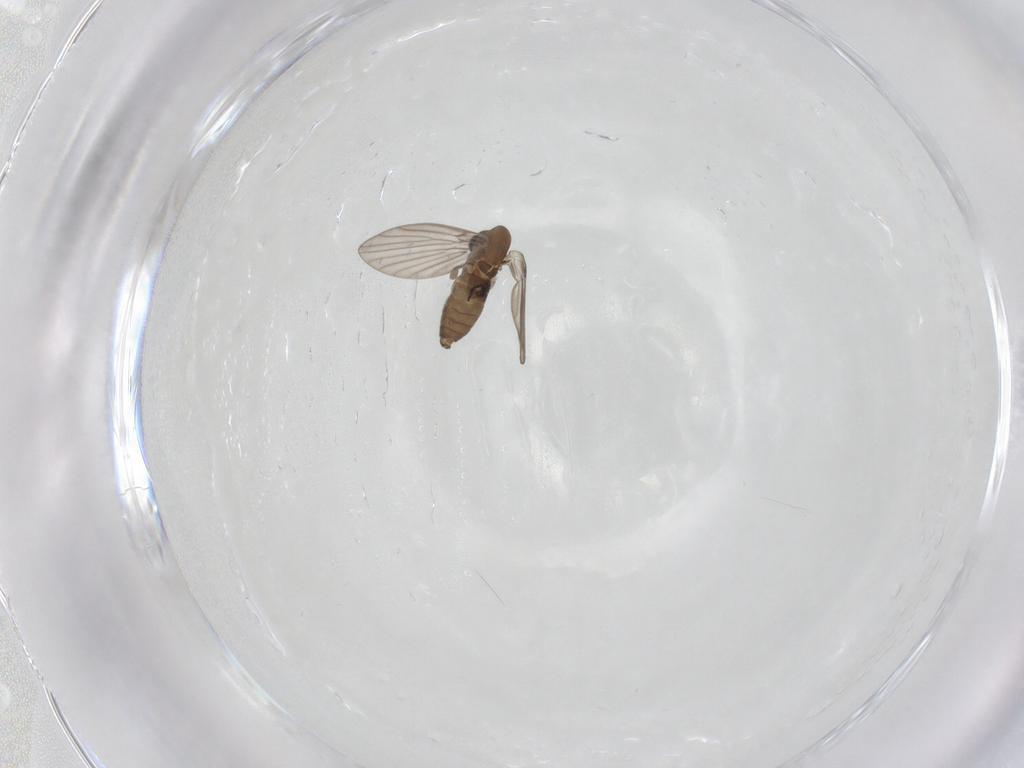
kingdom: Animalia
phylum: Arthropoda
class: Insecta
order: Diptera
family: Psychodidae
